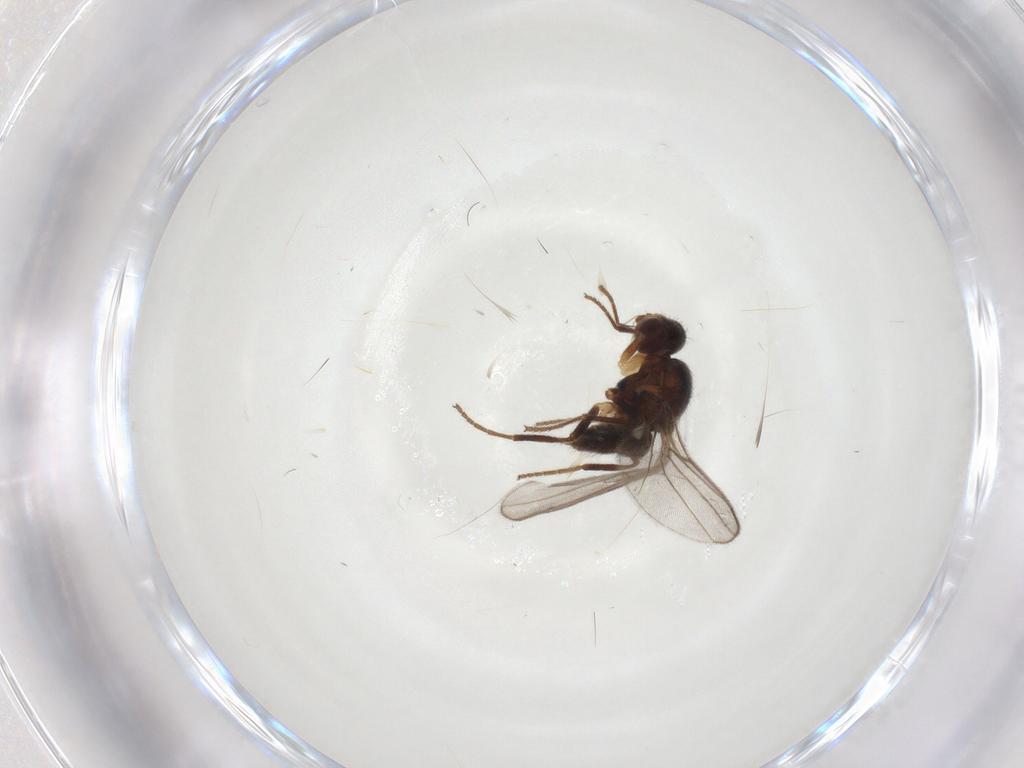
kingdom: Animalia
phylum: Arthropoda
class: Insecta
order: Diptera
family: Chloropidae
